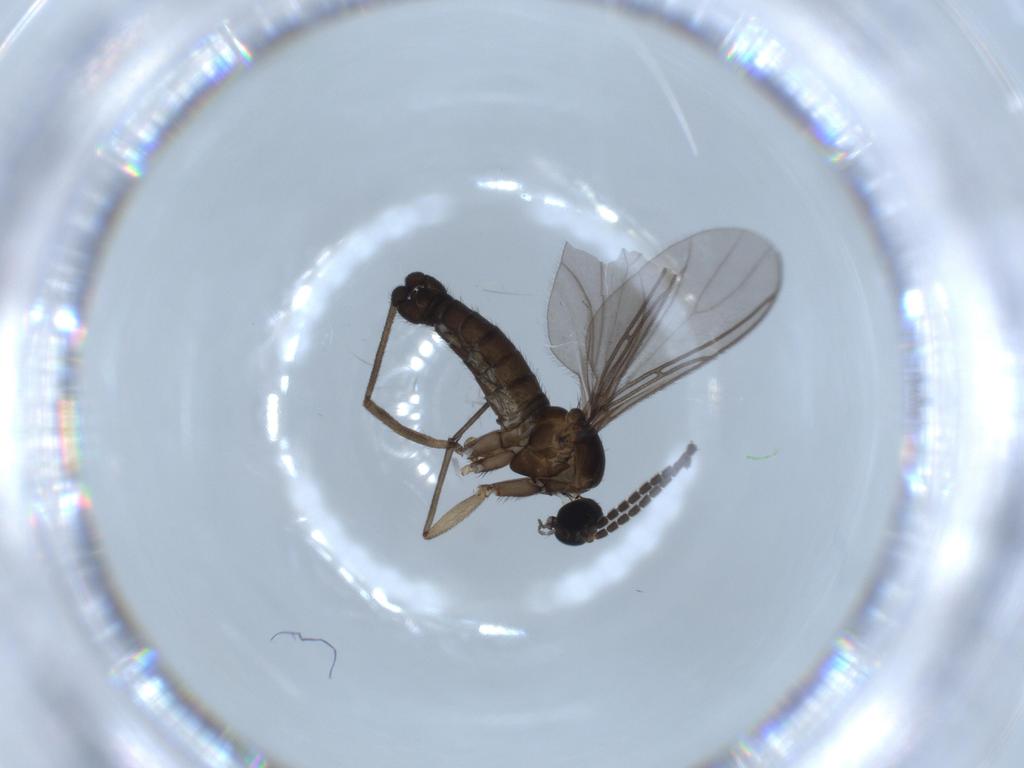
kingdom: Animalia
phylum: Arthropoda
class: Insecta
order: Diptera
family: Sciaridae
